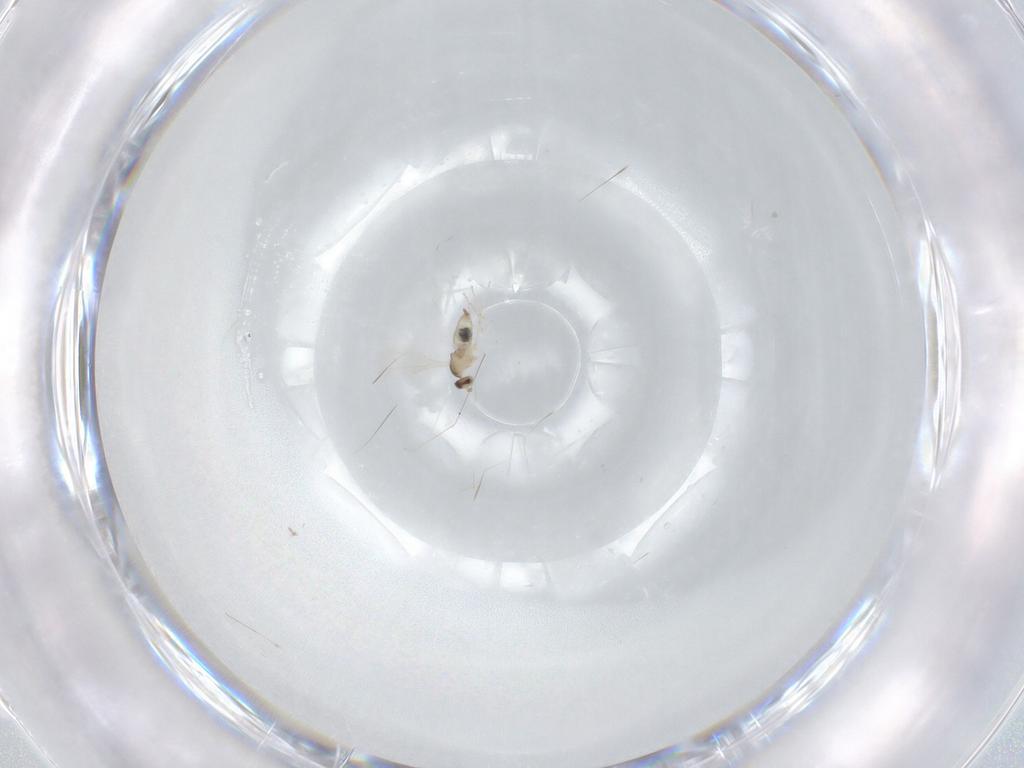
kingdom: Animalia
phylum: Arthropoda
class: Insecta
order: Diptera
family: Cecidomyiidae
